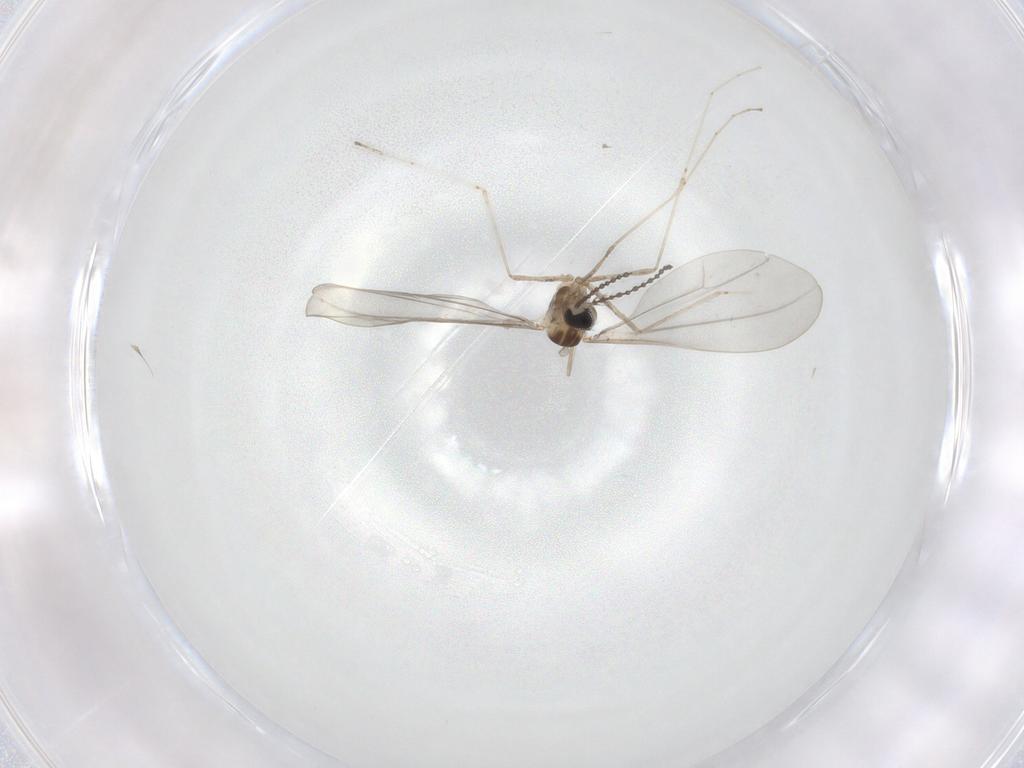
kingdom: Animalia
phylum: Arthropoda
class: Insecta
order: Diptera
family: Cecidomyiidae
